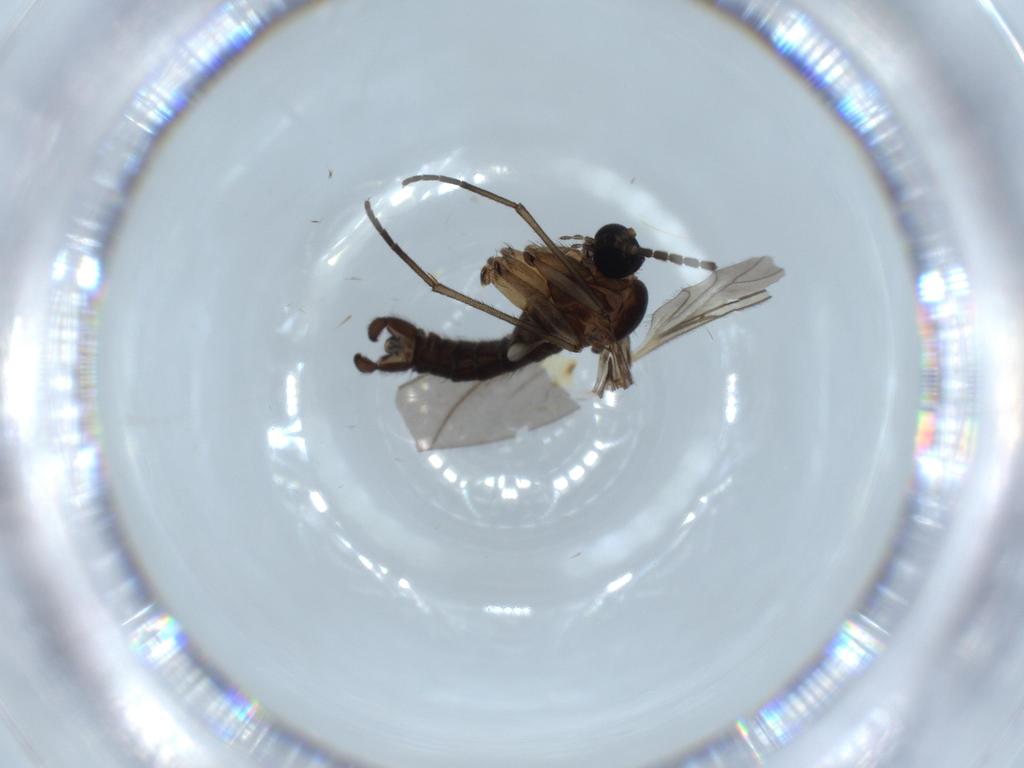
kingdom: Animalia
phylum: Arthropoda
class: Insecta
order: Diptera
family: Sciaridae
